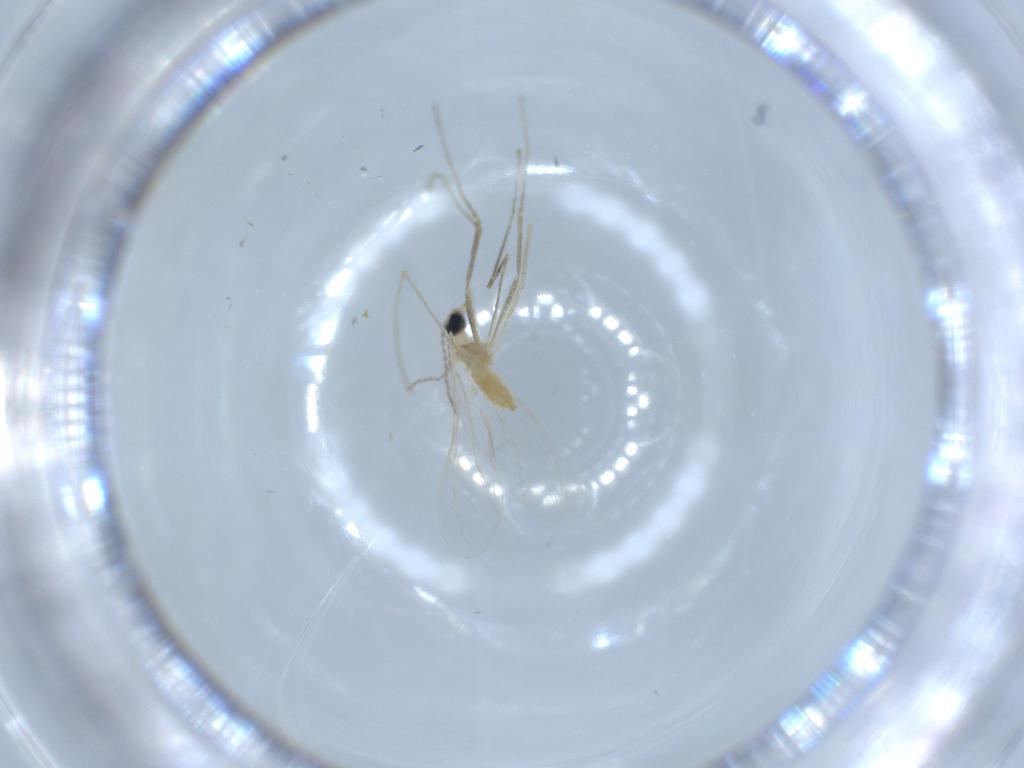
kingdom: Animalia
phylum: Arthropoda
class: Insecta
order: Diptera
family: Cecidomyiidae
